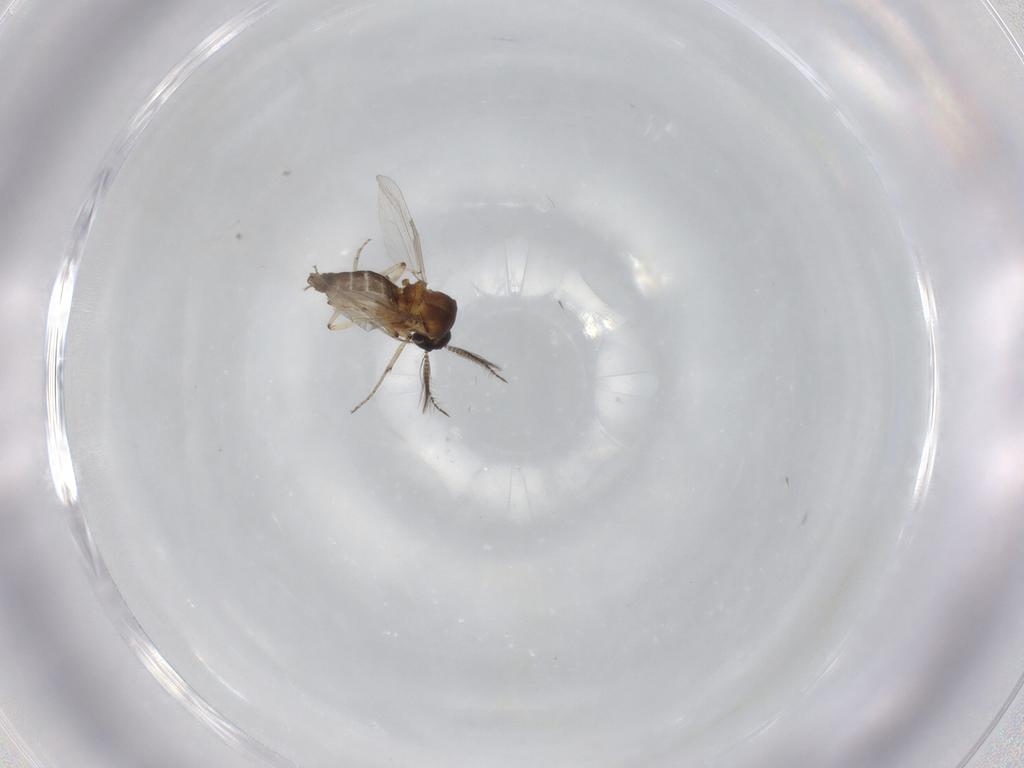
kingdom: Animalia
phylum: Arthropoda
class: Insecta
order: Diptera
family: Ceratopogonidae
